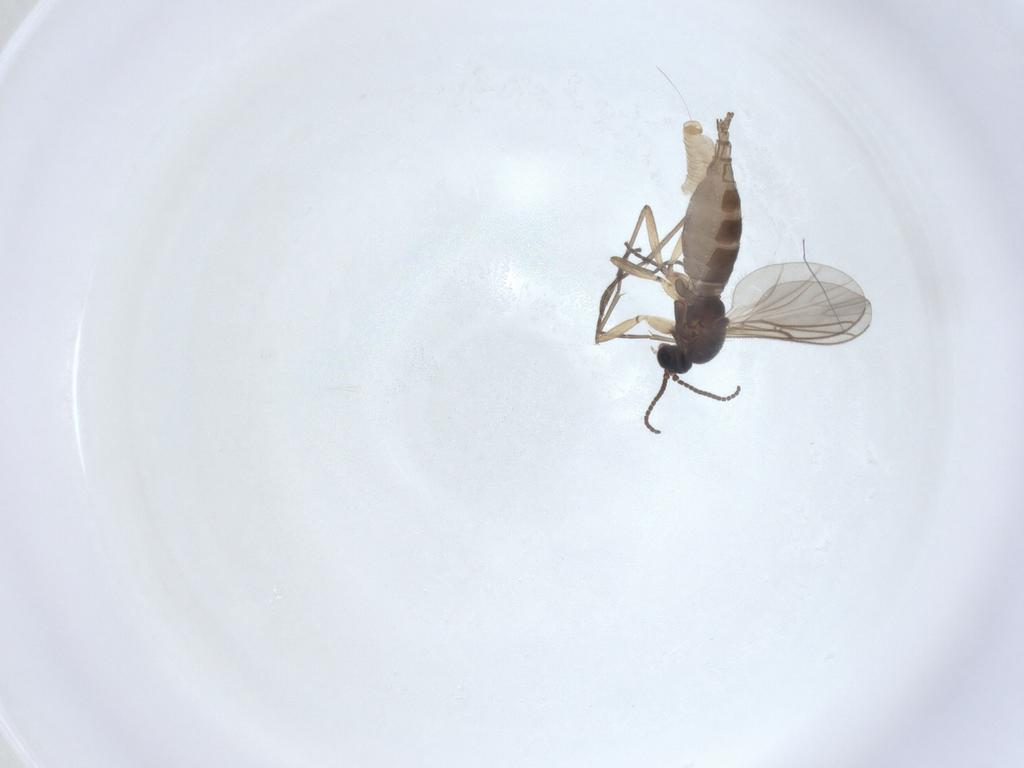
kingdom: Animalia
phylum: Arthropoda
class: Insecta
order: Diptera
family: Sciaridae
